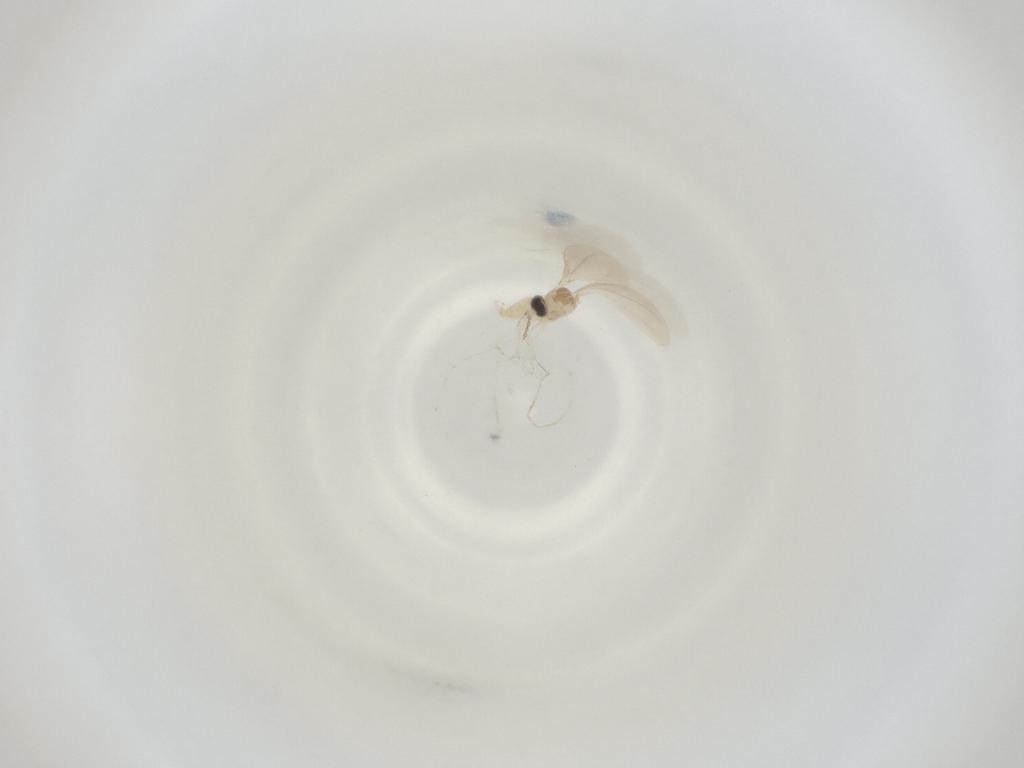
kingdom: Animalia
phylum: Arthropoda
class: Insecta
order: Diptera
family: Cecidomyiidae
